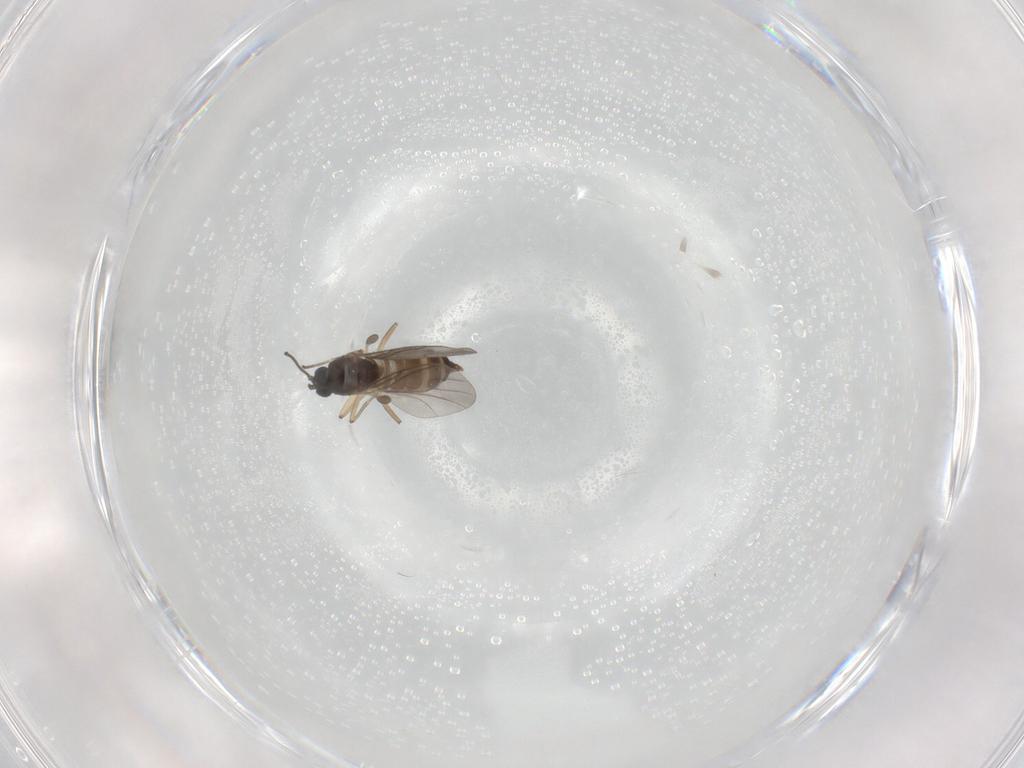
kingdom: Animalia
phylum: Arthropoda
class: Insecta
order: Diptera
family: Sciaridae
